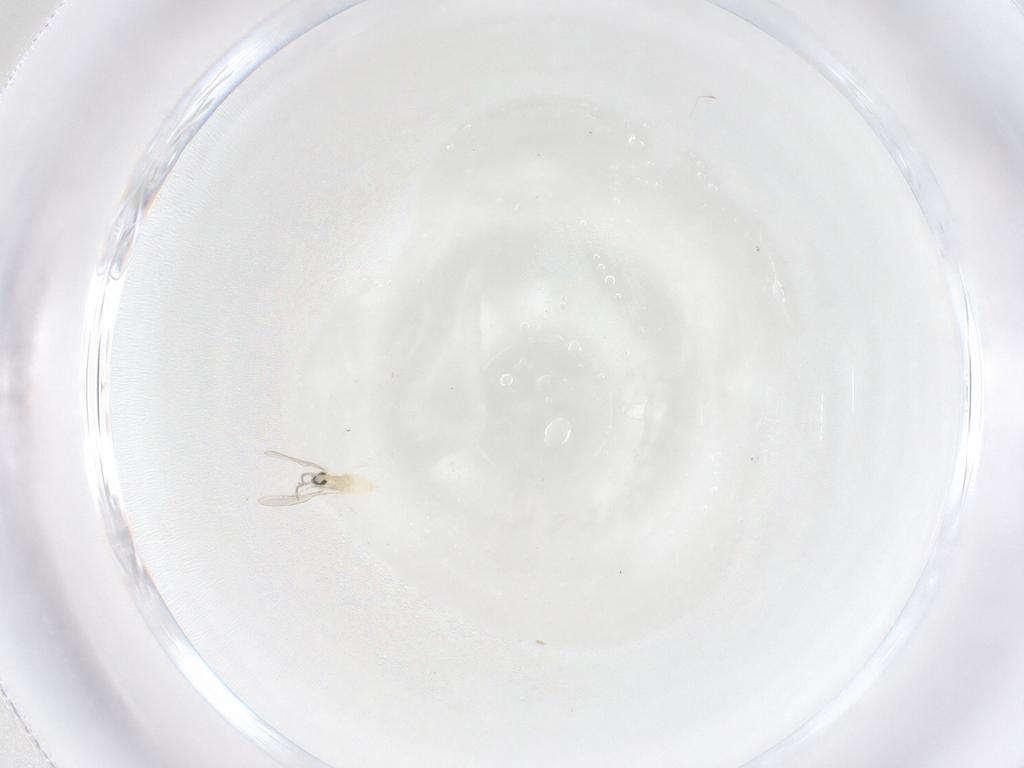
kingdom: Animalia
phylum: Arthropoda
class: Insecta
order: Diptera
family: Cecidomyiidae
